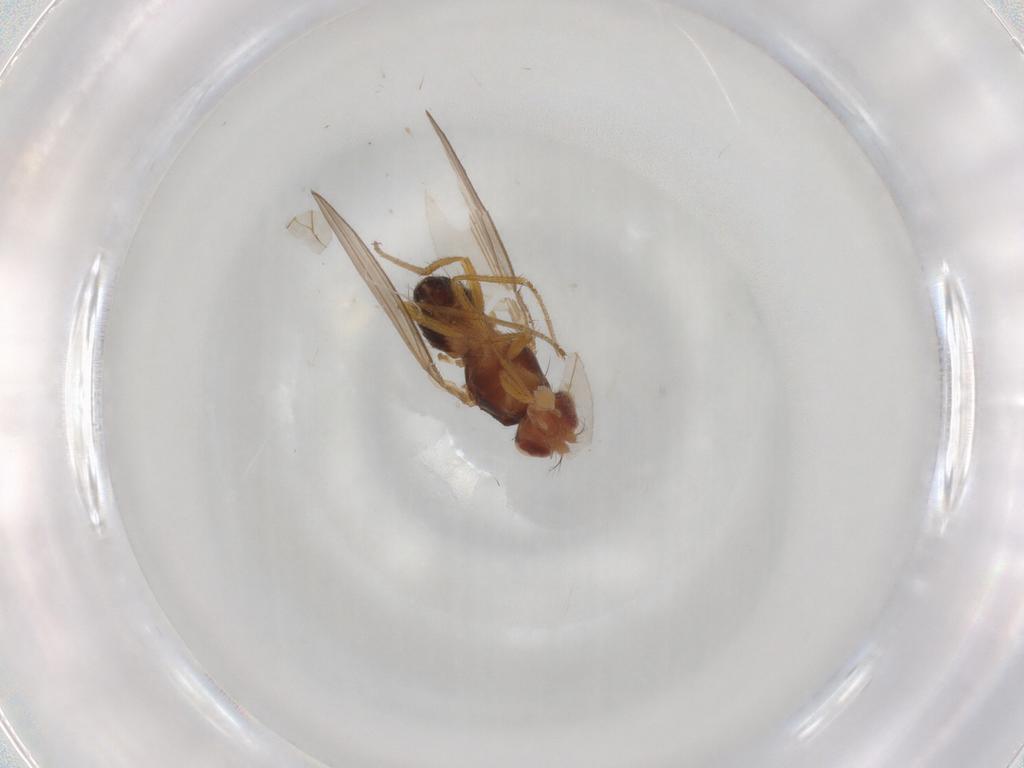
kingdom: Animalia
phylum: Arthropoda
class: Insecta
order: Diptera
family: Drosophilidae
